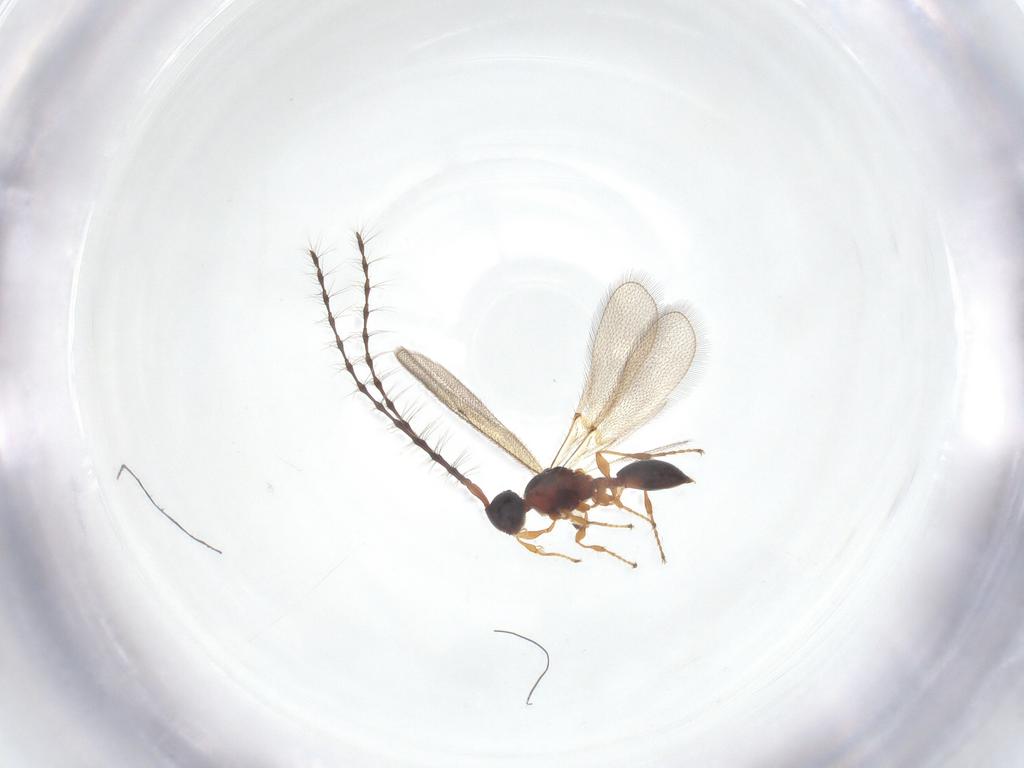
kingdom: Animalia
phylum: Arthropoda
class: Insecta
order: Hymenoptera
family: Diapriidae
